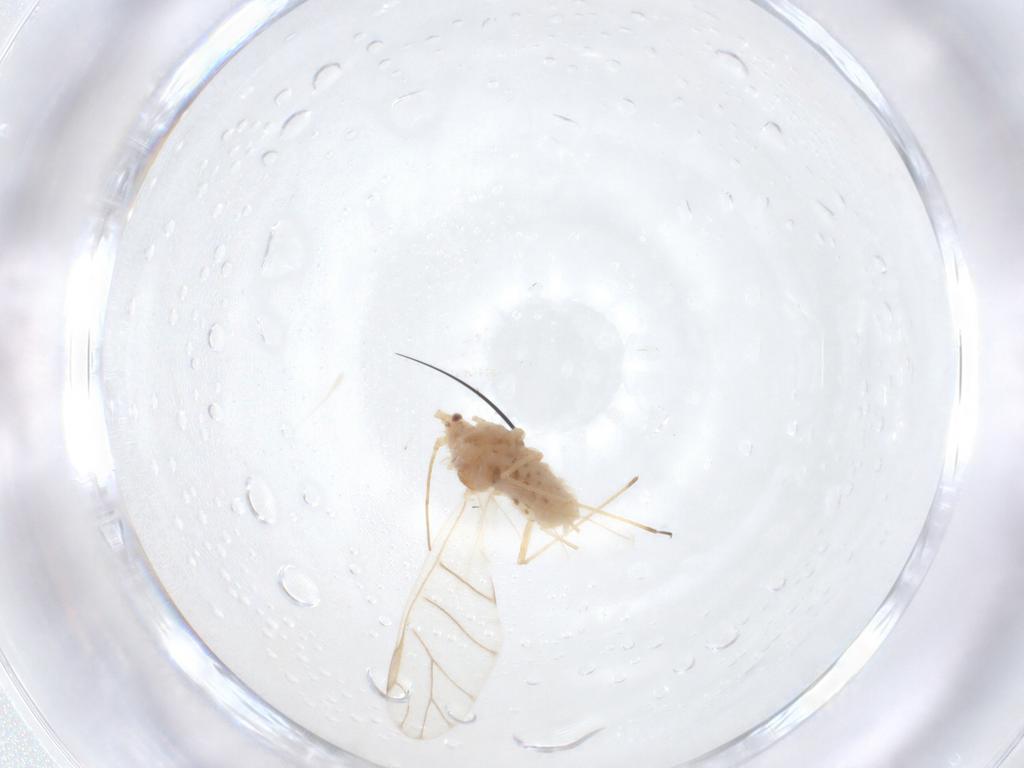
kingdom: Animalia
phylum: Arthropoda
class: Insecta
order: Hemiptera
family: Aphididae
